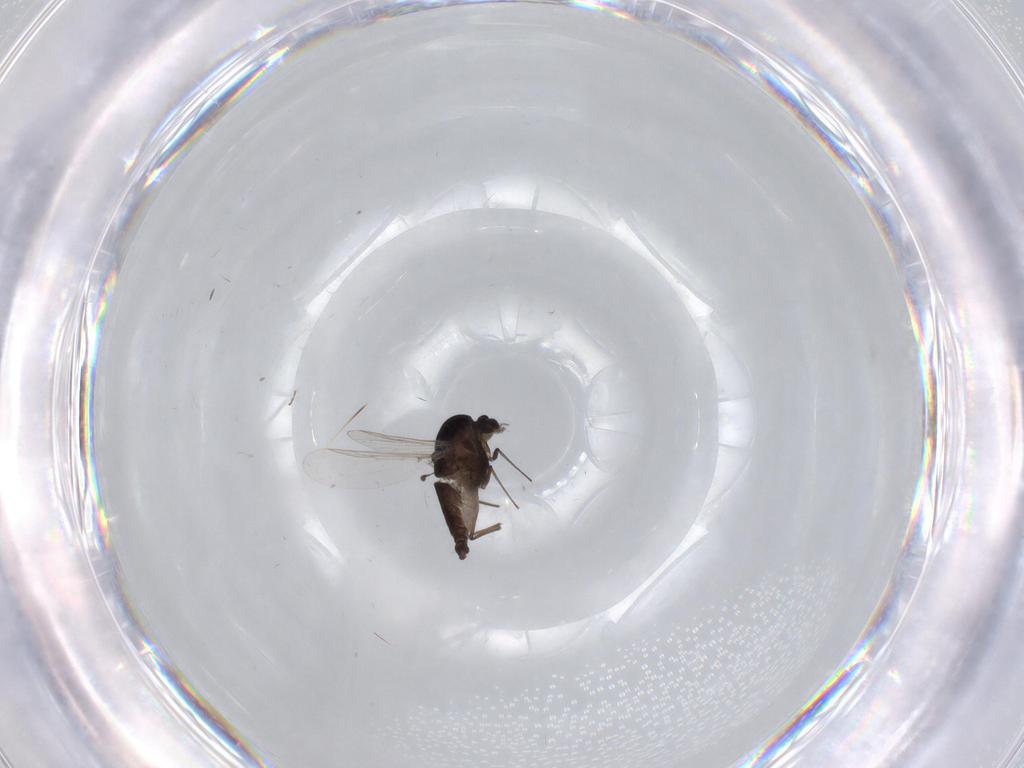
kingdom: Animalia
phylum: Arthropoda
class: Insecta
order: Diptera
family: Chironomidae
